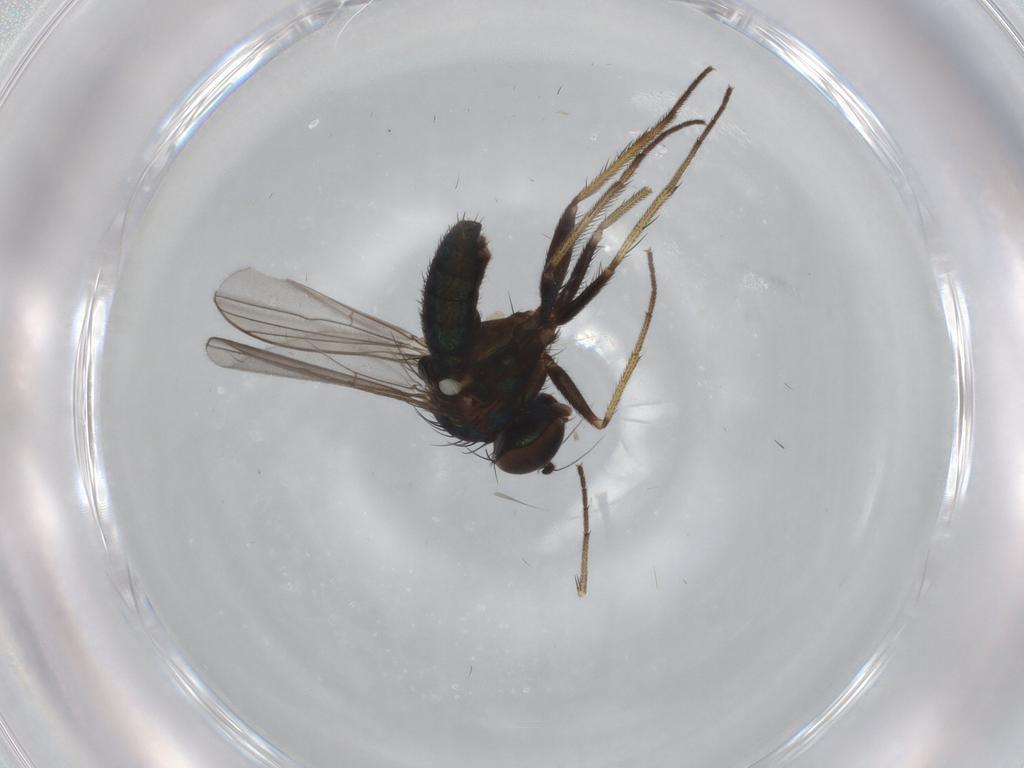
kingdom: Animalia
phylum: Arthropoda
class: Insecta
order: Diptera
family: Dolichopodidae
